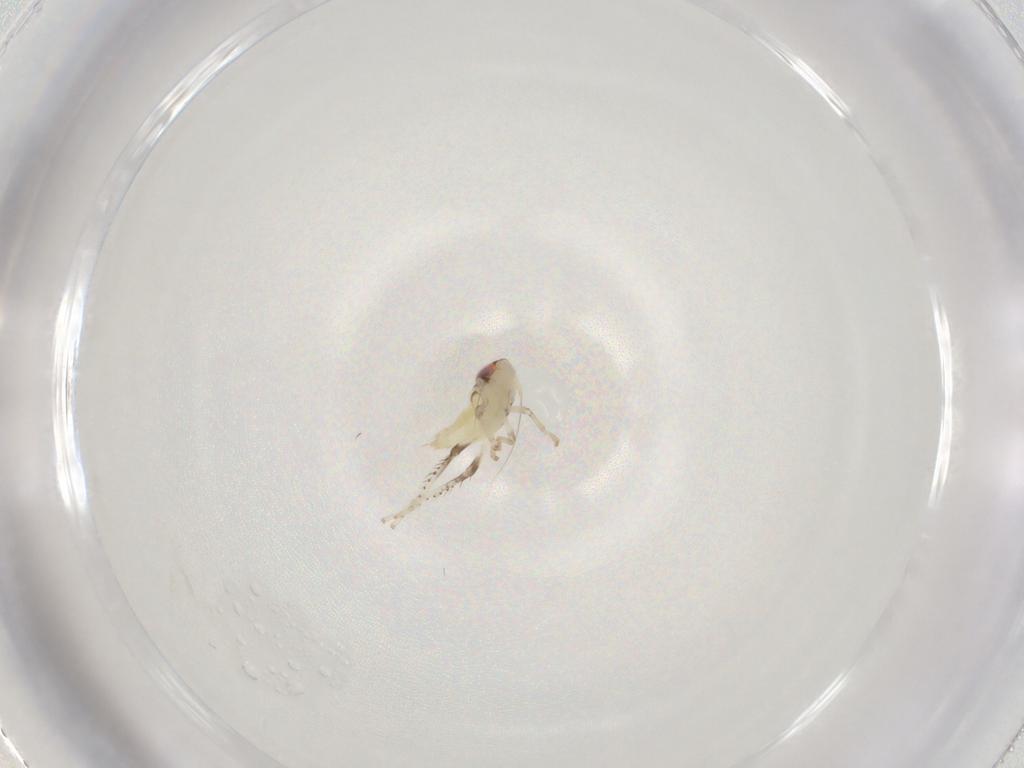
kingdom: Animalia
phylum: Arthropoda
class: Insecta
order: Hemiptera
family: Cicadellidae
